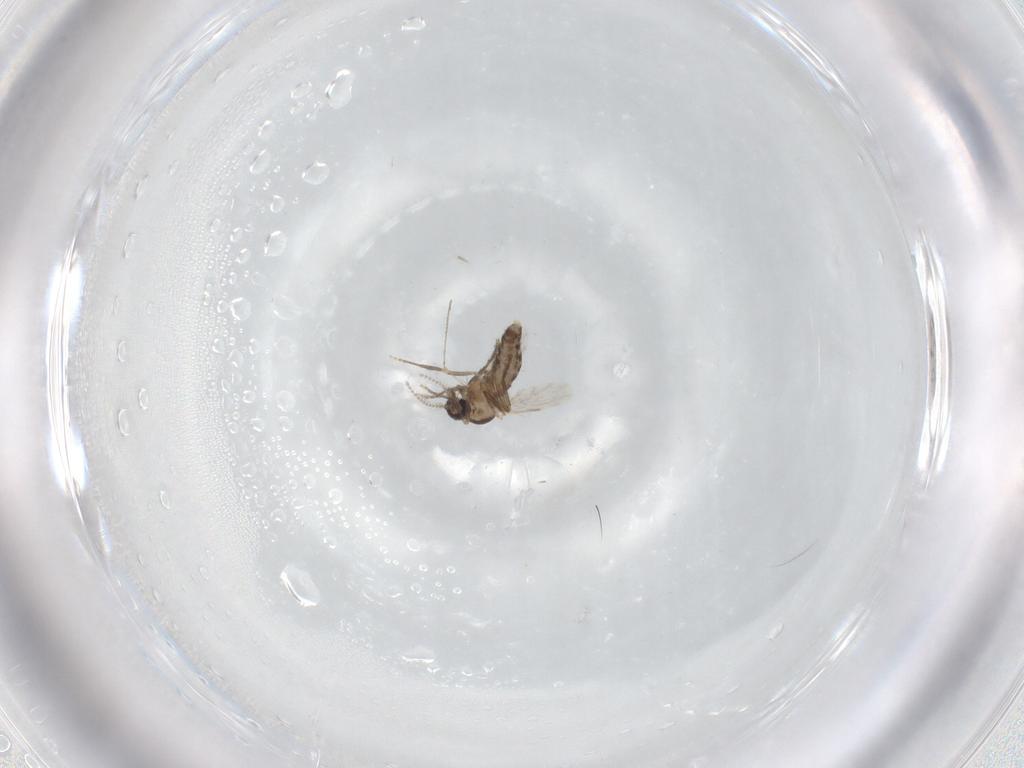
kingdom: Animalia
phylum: Arthropoda
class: Insecta
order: Diptera
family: Ceratopogonidae
